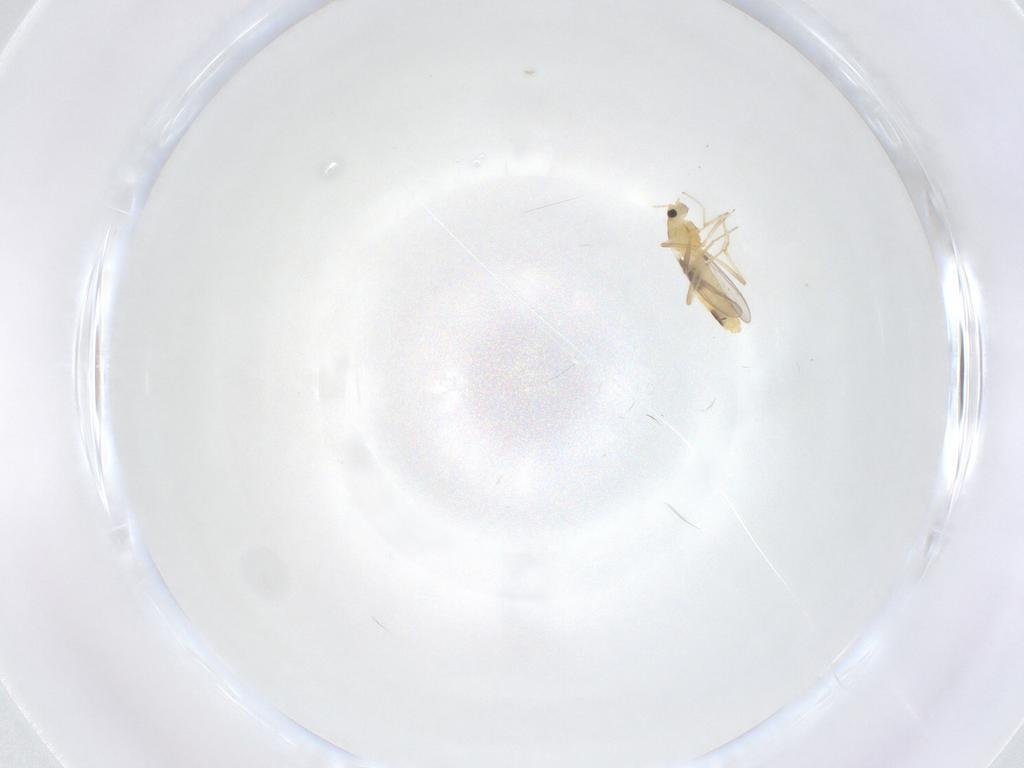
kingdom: Animalia
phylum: Arthropoda
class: Insecta
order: Diptera
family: Chironomidae
